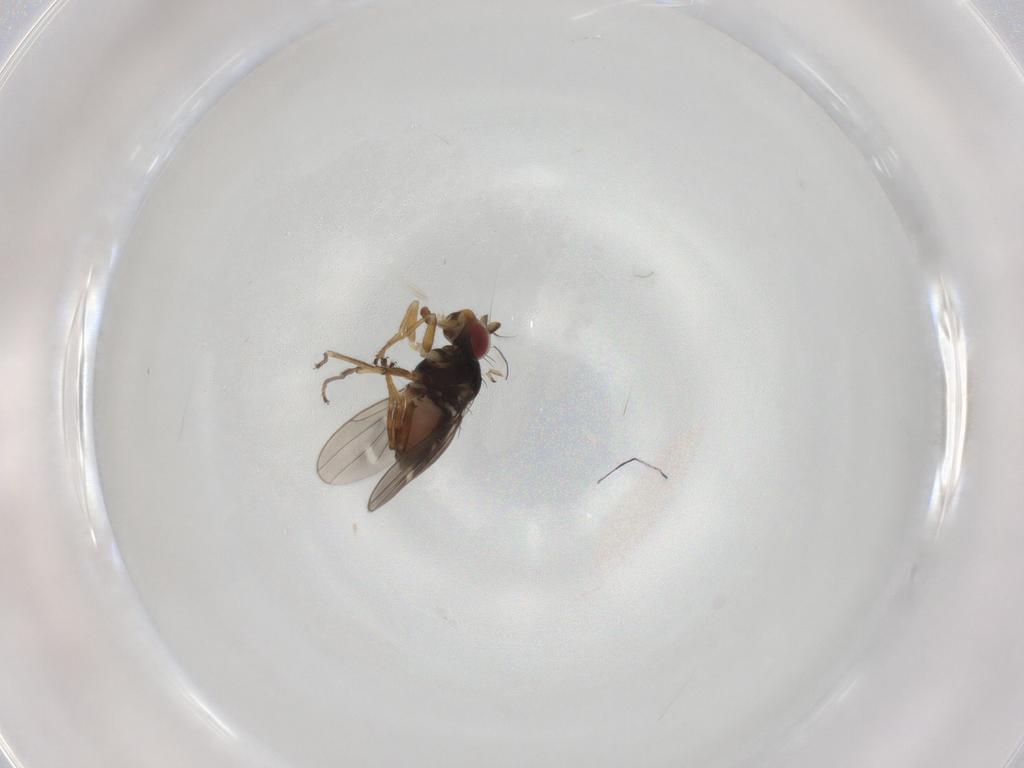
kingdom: Animalia
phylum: Arthropoda
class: Insecta
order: Diptera
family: Ephydridae
